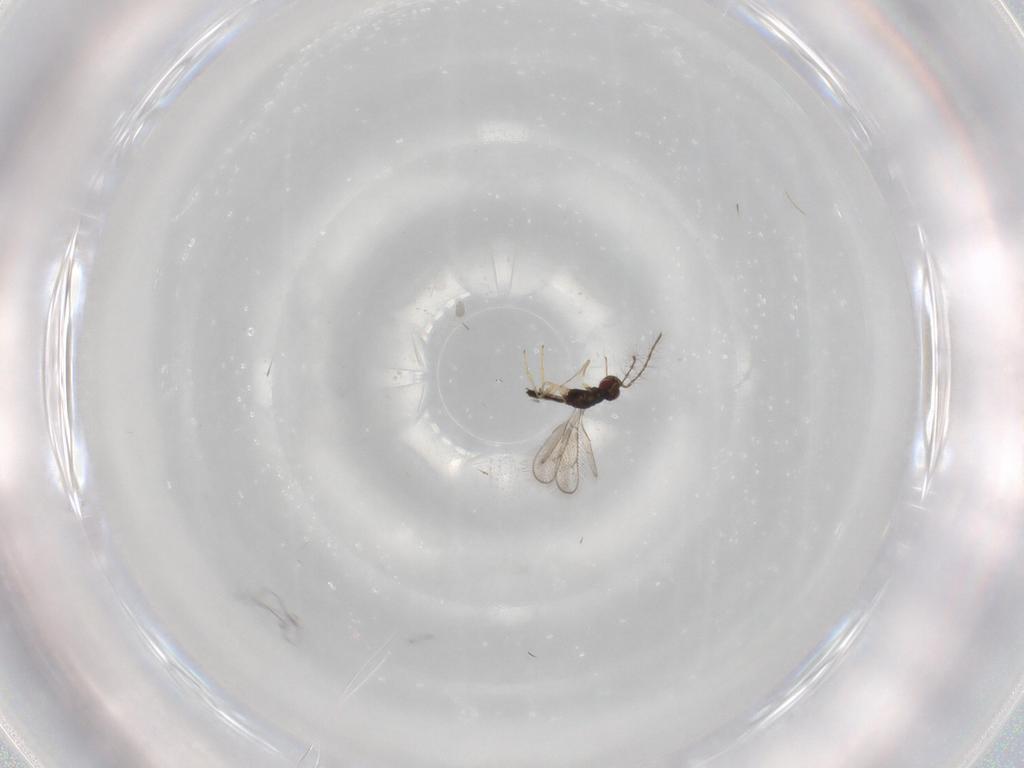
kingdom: Animalia
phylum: Arthropoda
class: Insecta
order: Hymenoptera
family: Pteromalidae
